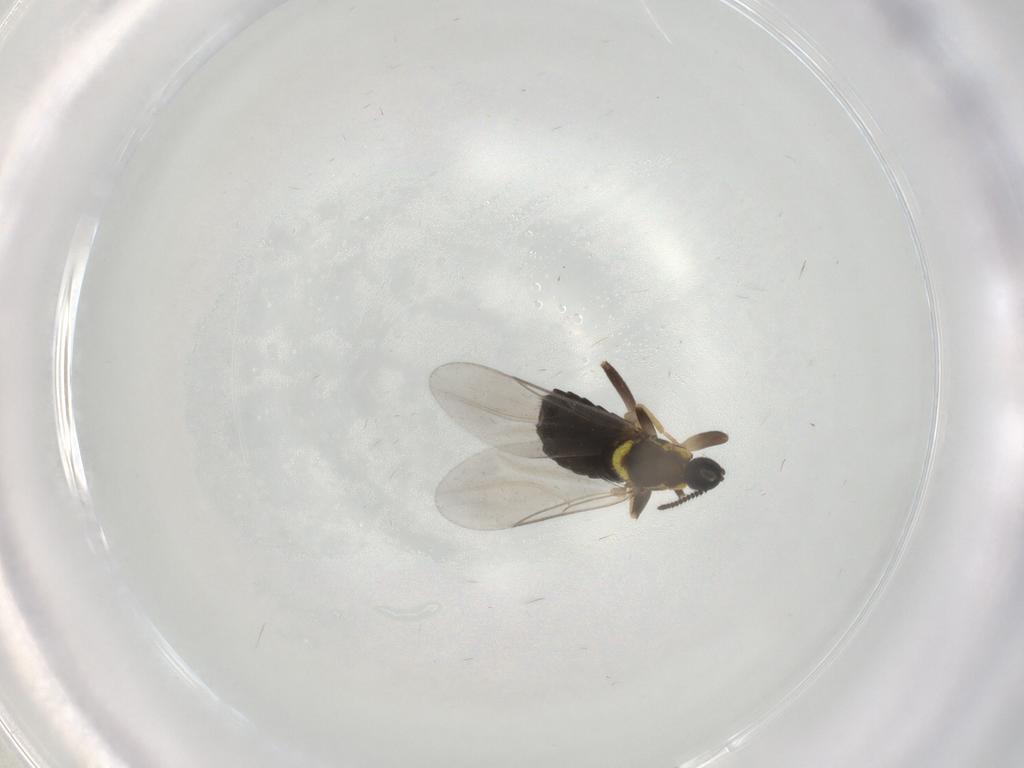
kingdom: Animalia
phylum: Arthropoda
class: Insecta
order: Diptera
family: Scatopsidae
